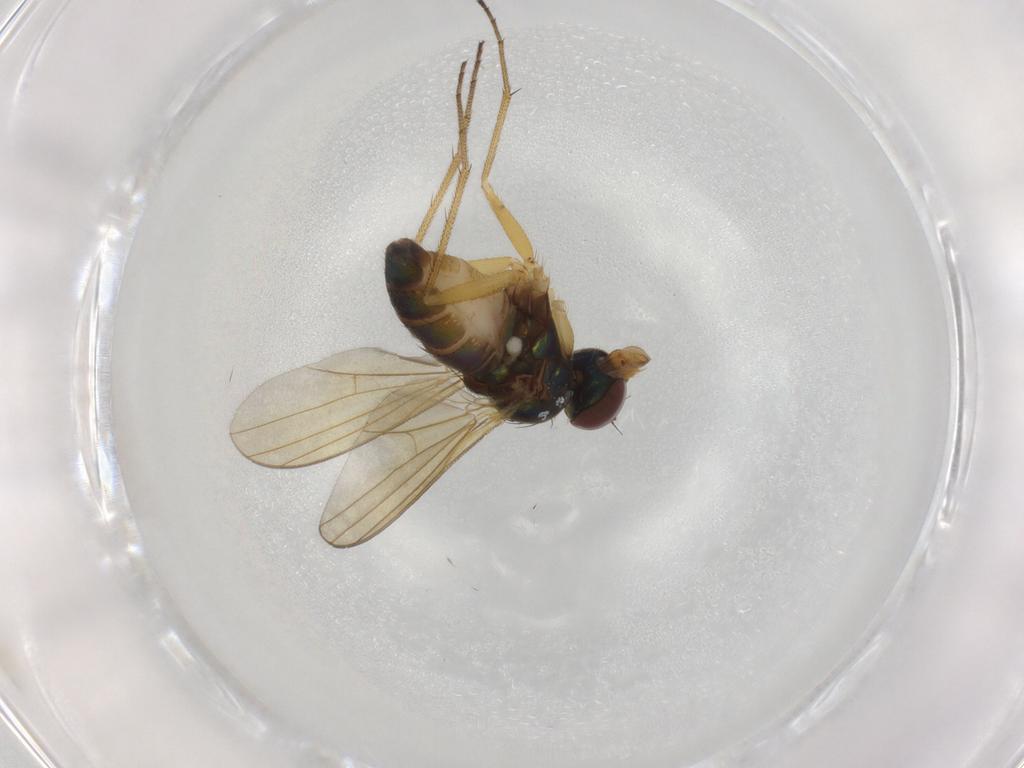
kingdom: Animalia
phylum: Arthropoda
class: Insecta
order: Diptera
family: Dolichopodidae
